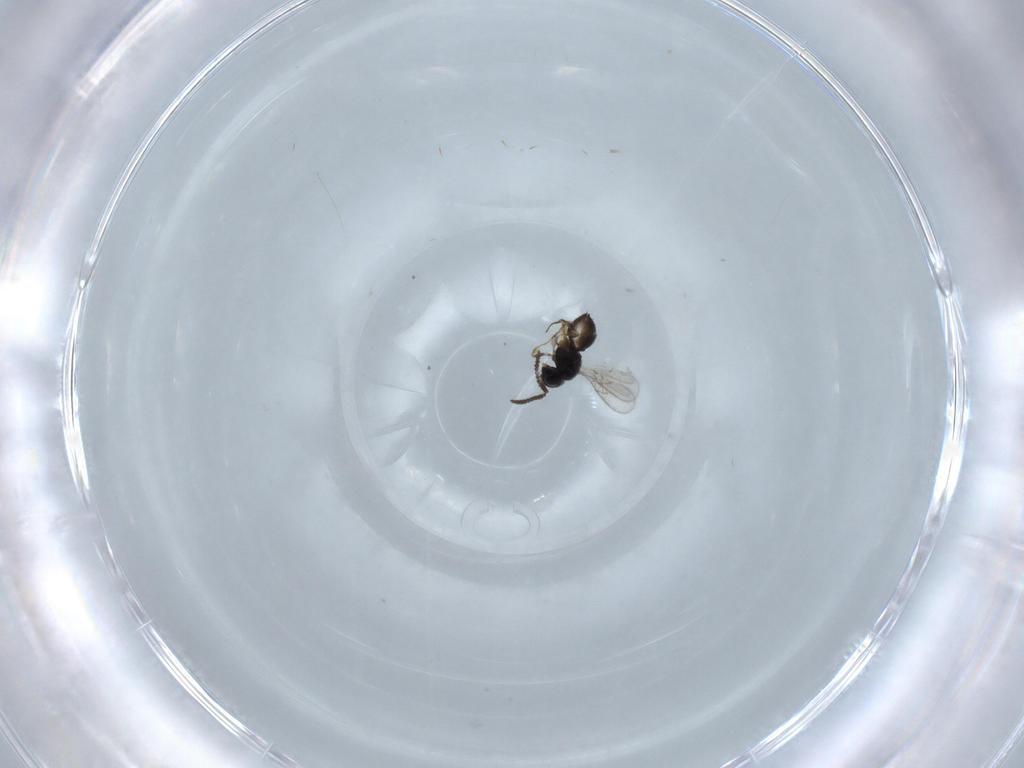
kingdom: Animalia
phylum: Arthropoda
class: Insecta
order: Hymenoptera
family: Scelionidae
